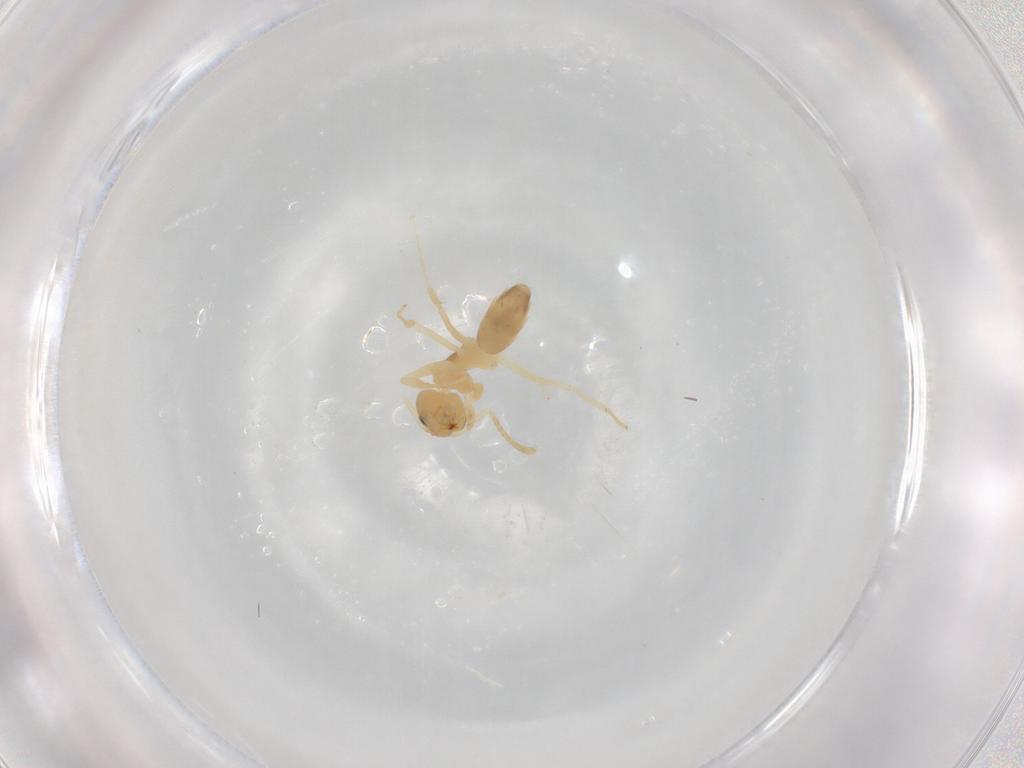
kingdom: Animalia
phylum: Arthropoda
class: Insecta
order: Hymenoptera
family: Formicidae
